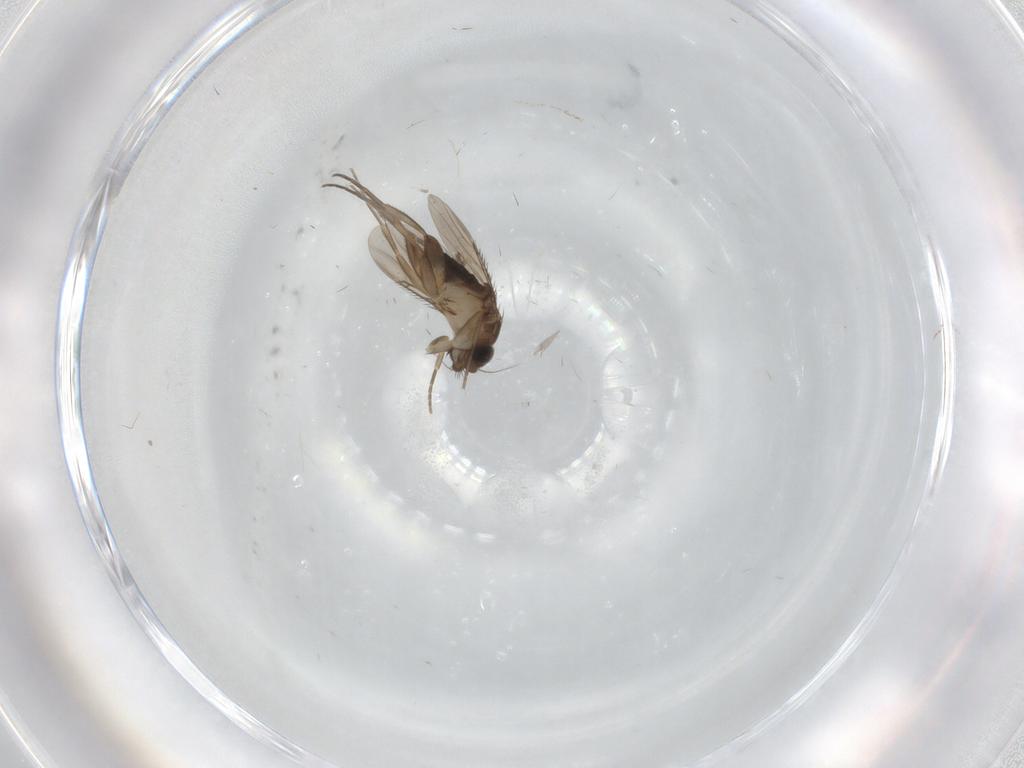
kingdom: Animalia
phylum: Arthropoda
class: Insecta
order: Diptera
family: Phoridae
